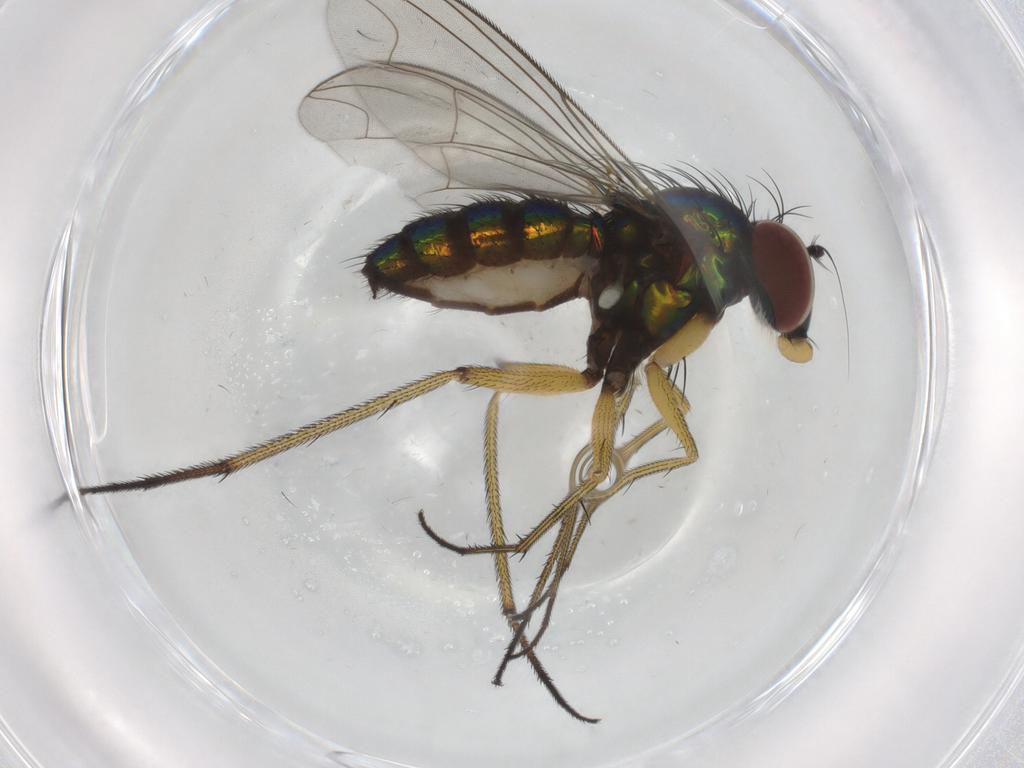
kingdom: Animalia
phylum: Arthropoda
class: Insecta
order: Diptera
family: Dolichopodidae
